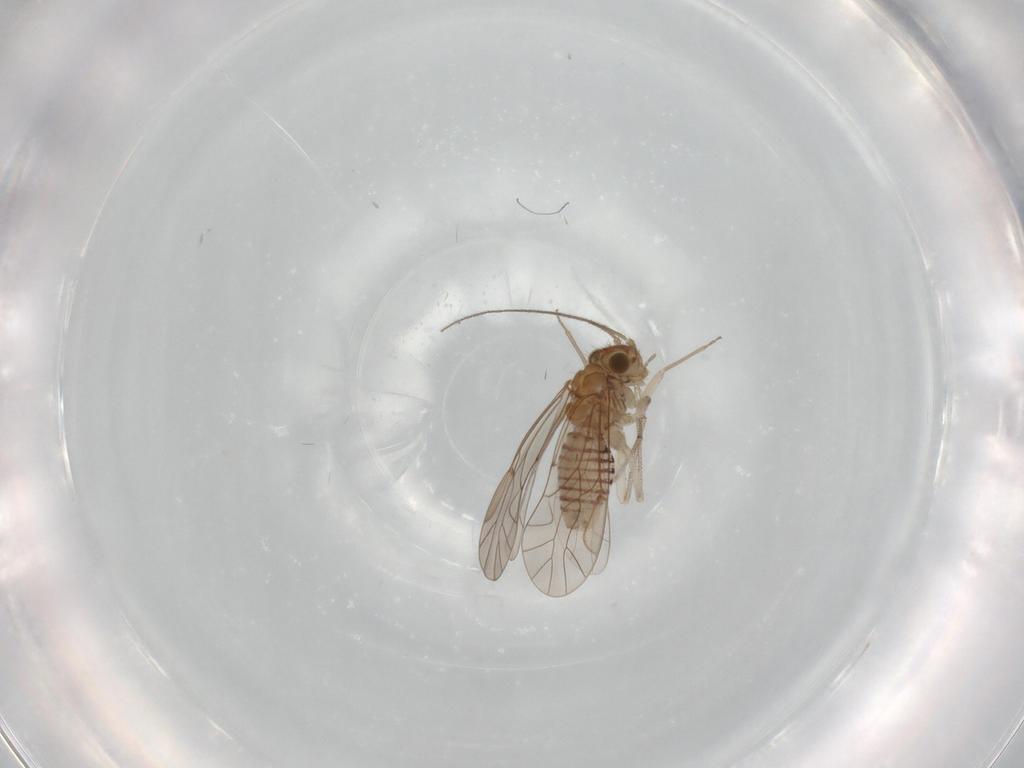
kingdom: Animalia
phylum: Arthropoda
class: Insecta
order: Psocodea
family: Lachesillidae
